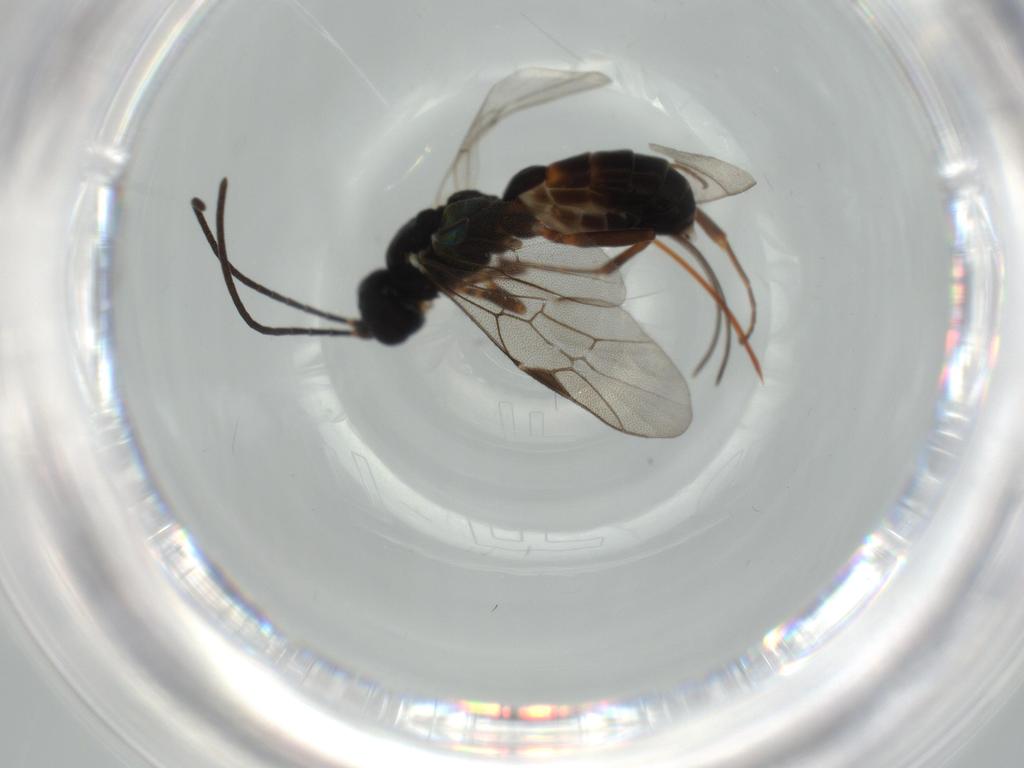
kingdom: Animalia
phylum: Arthropoda
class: Insecta
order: Hymenoptera
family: Ichneumonidae
